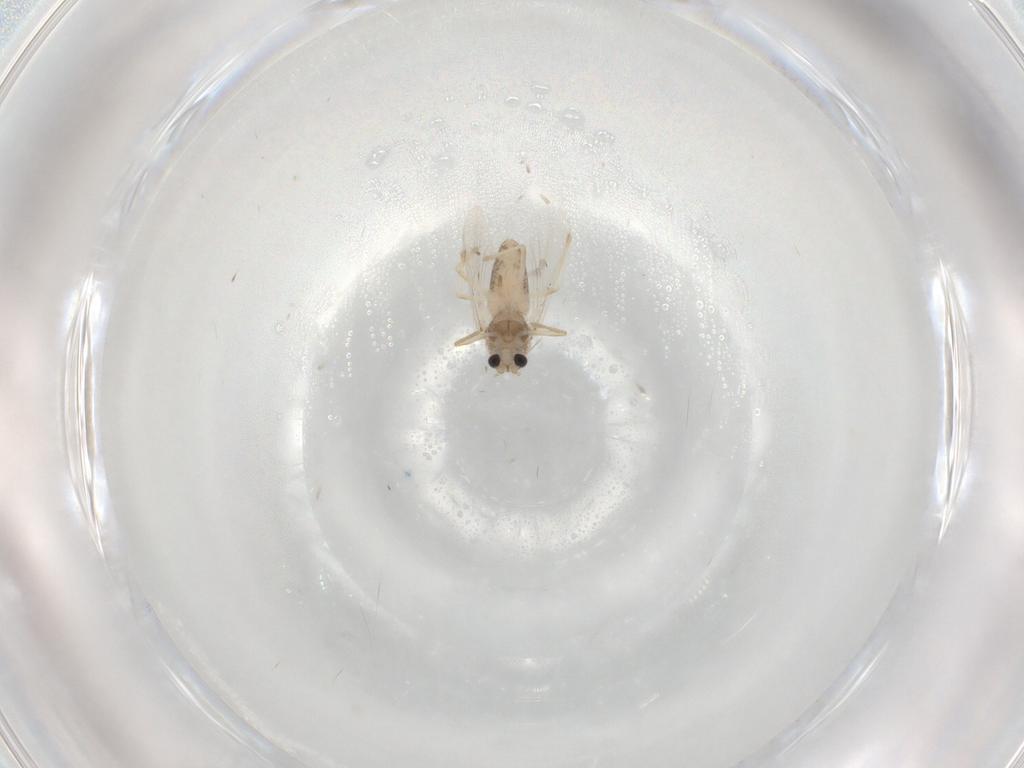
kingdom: Animalia
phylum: Arthropoda
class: Insecta
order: Diptera
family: Chironomidae
